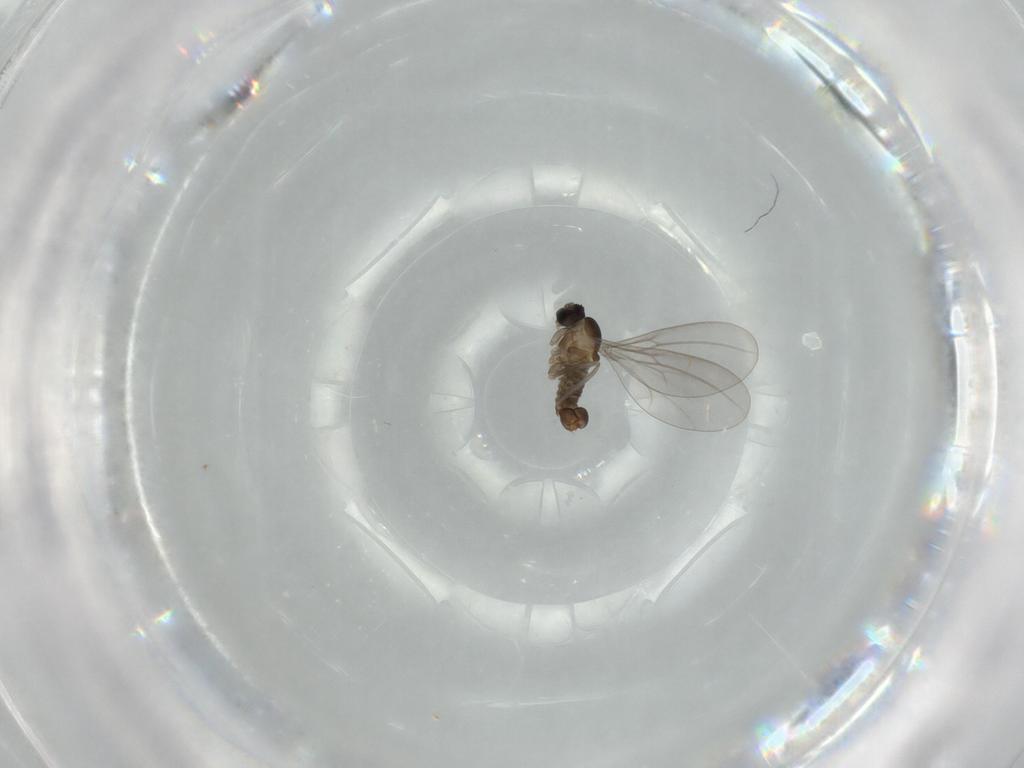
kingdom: Animalia
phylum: Arthropoda
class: Insecta
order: Diptera
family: Cecidomyiidae
